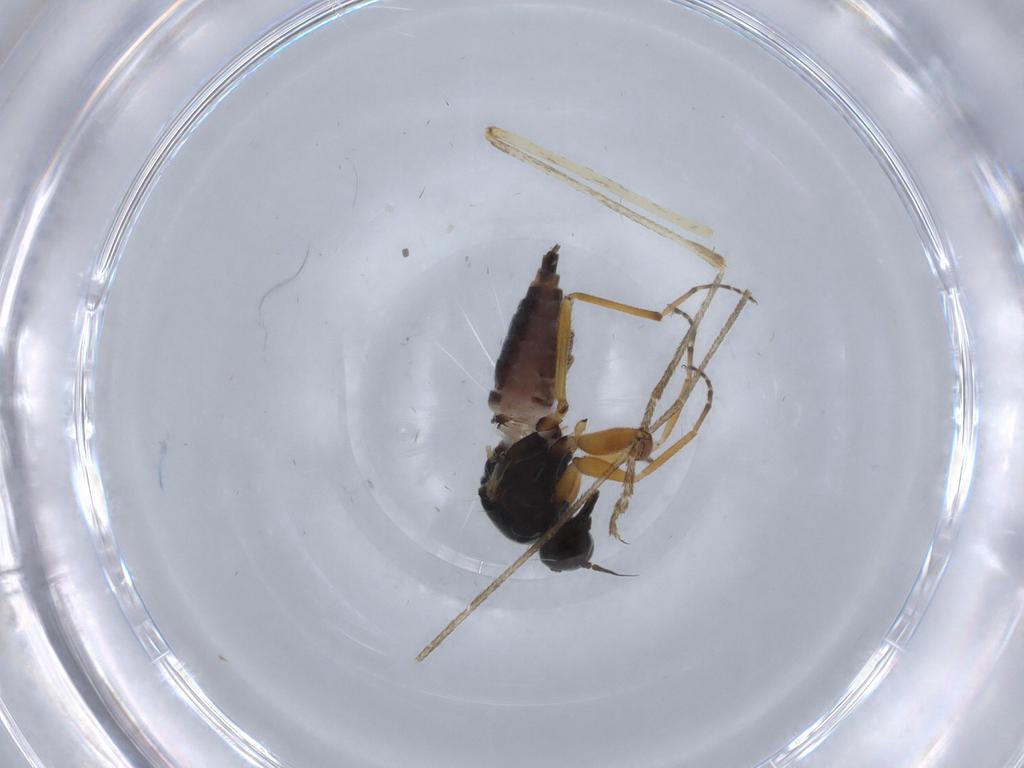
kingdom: Animalia
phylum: Arthropoda
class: Insecta
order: Diptera
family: Hybotidae
